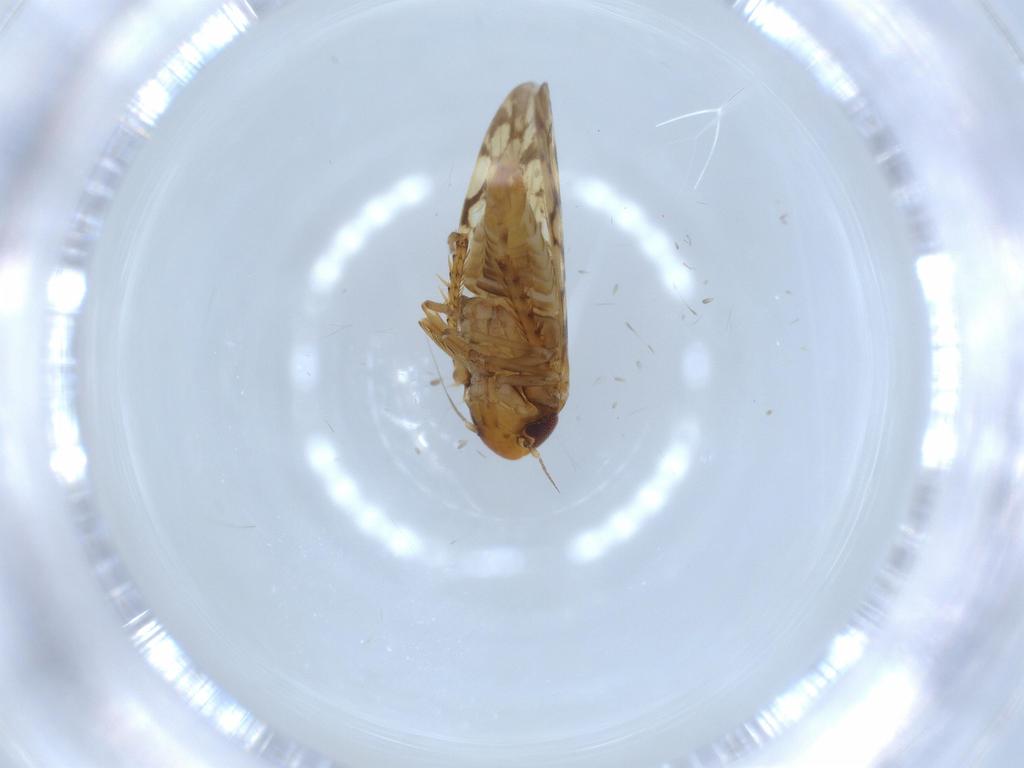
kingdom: Animalia
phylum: Arthropoda
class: Insecta
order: Hemiptera
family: Cicadellidae
